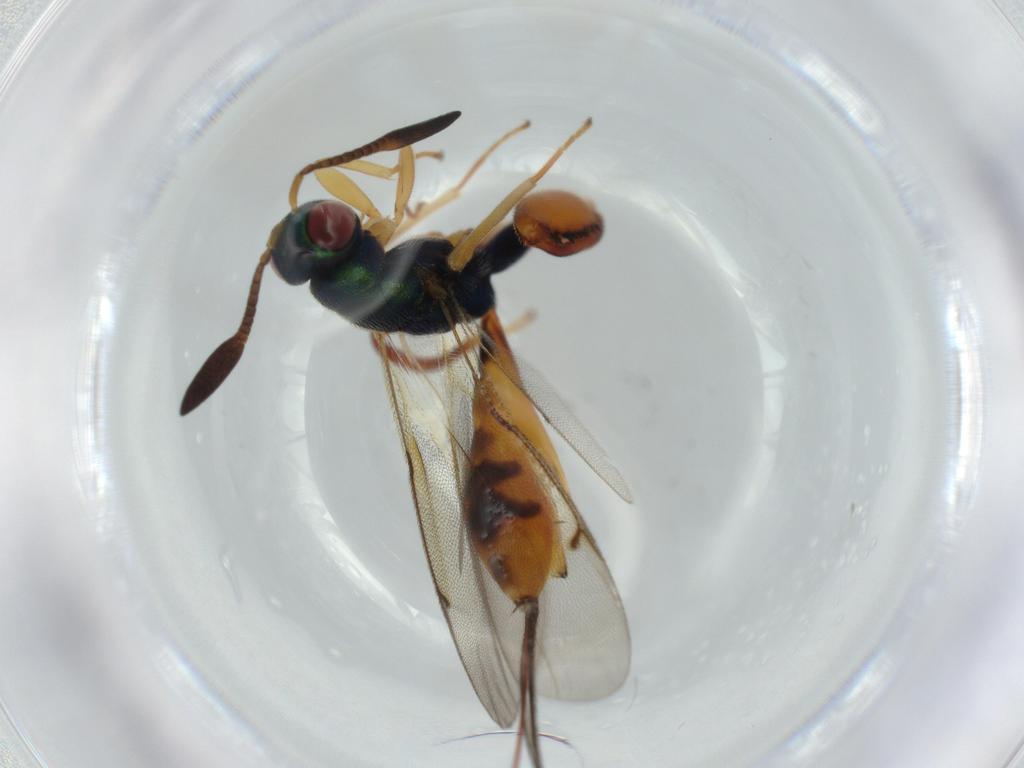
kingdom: Animalia
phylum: Arthropoda
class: Insecta
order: Hymenoptera
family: Torymidae
